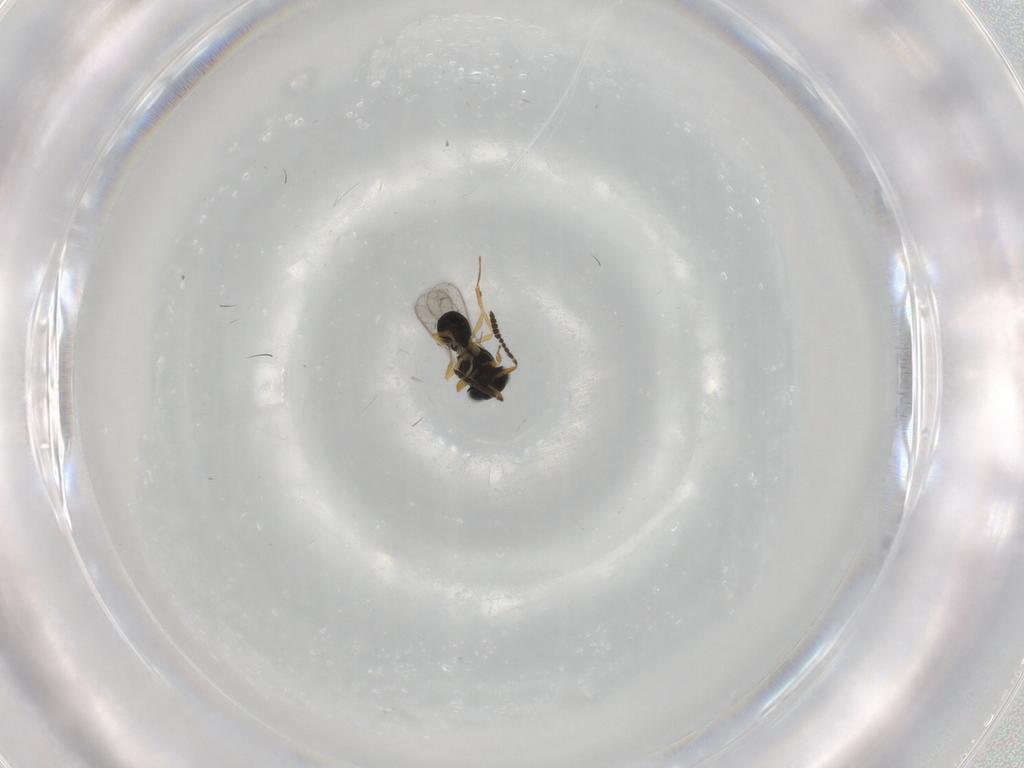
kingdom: Animalia
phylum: Arthropoda
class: Insecta
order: Hymenoptera
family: Scelionidae
